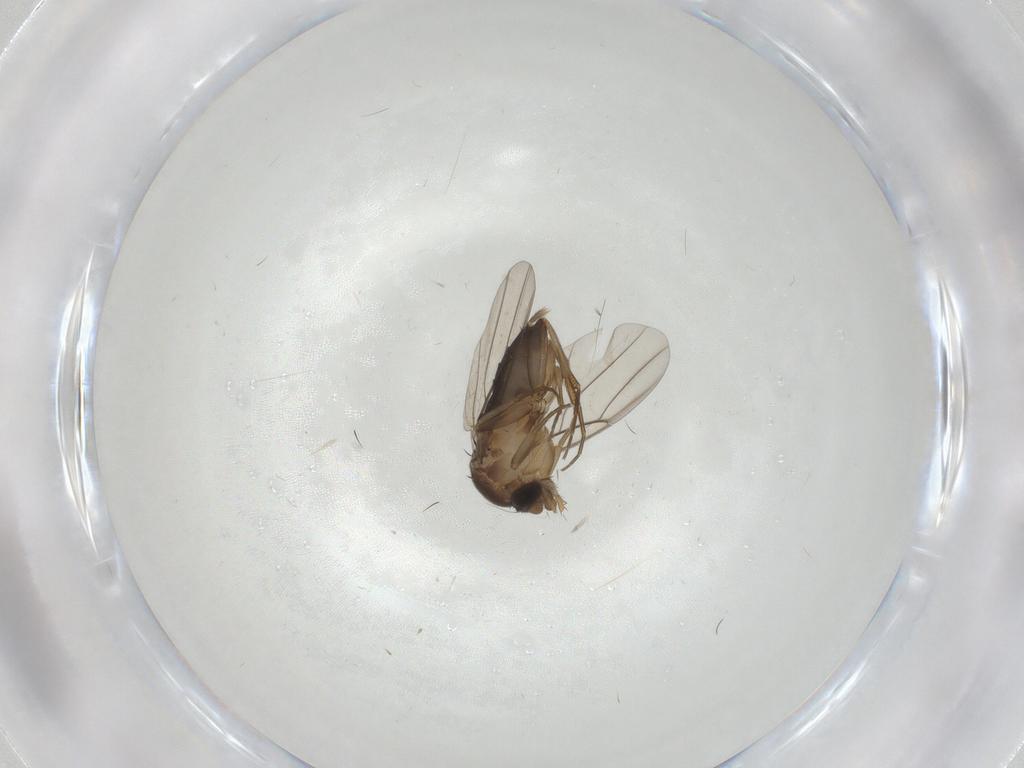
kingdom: Animalia
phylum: Arthropoda
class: Insecta
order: Diptera
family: Phoridae
